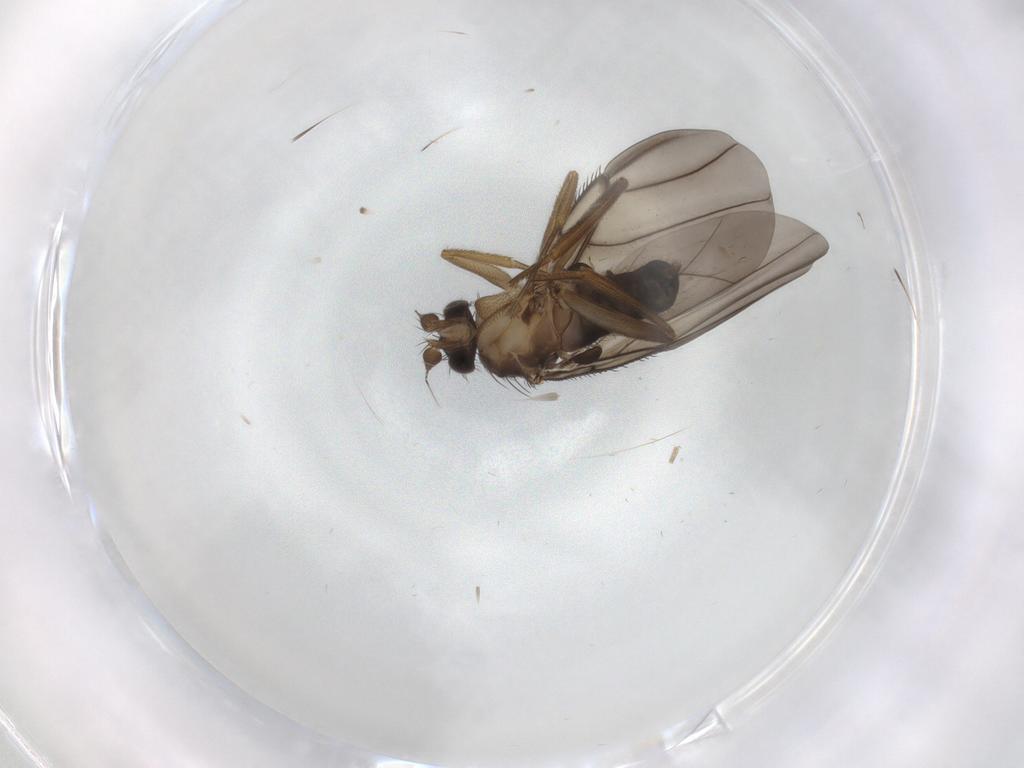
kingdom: Animalia
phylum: Arthropoda
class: Insecta
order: Diptera
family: Phoridae
